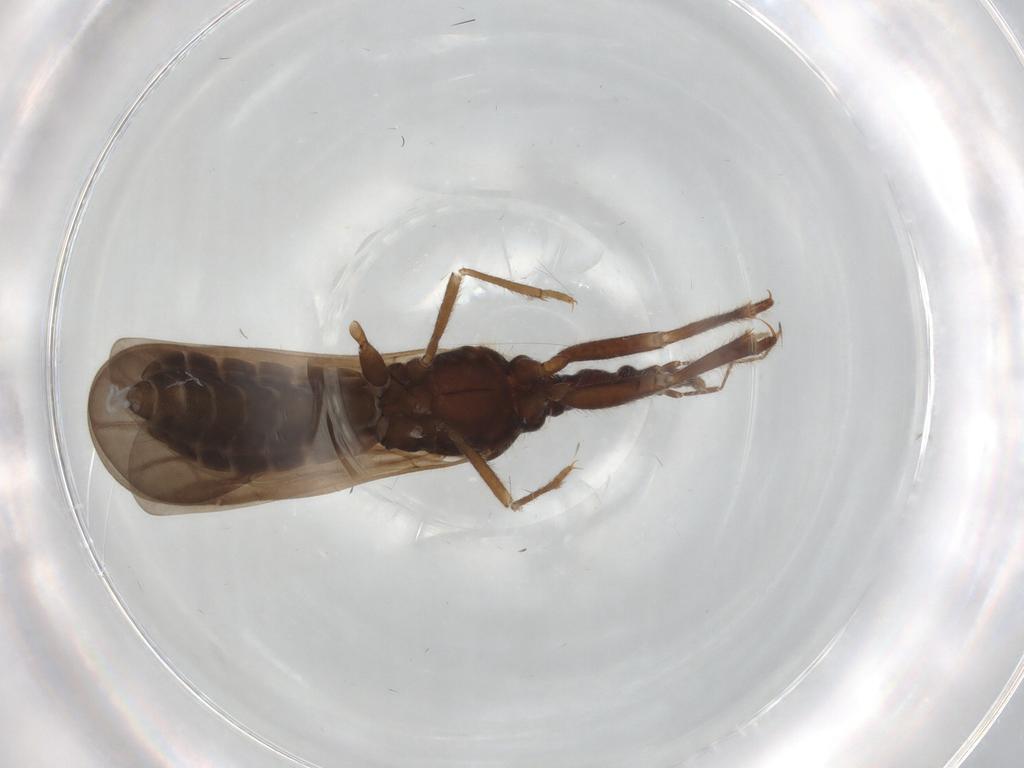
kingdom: Animalia
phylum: Arthropoda
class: Insecta
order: Hemiptera
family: Enicocephalidae
